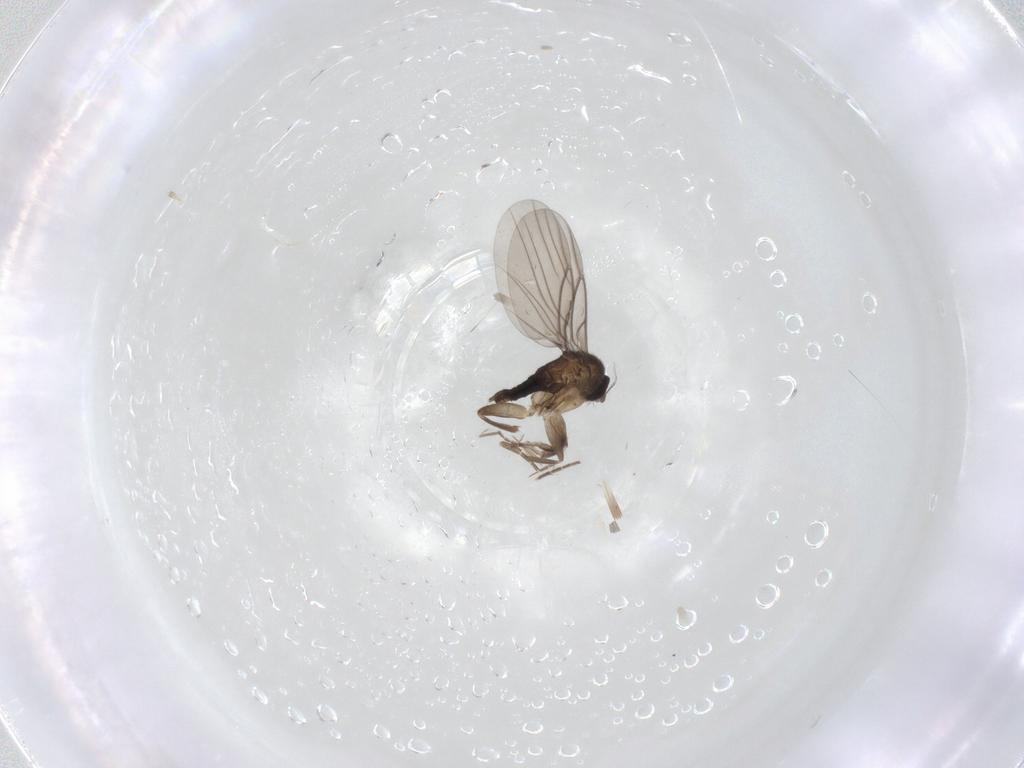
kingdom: Animalia
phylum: Arthropoda
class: Insecta
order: Diptera
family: Phoridae
